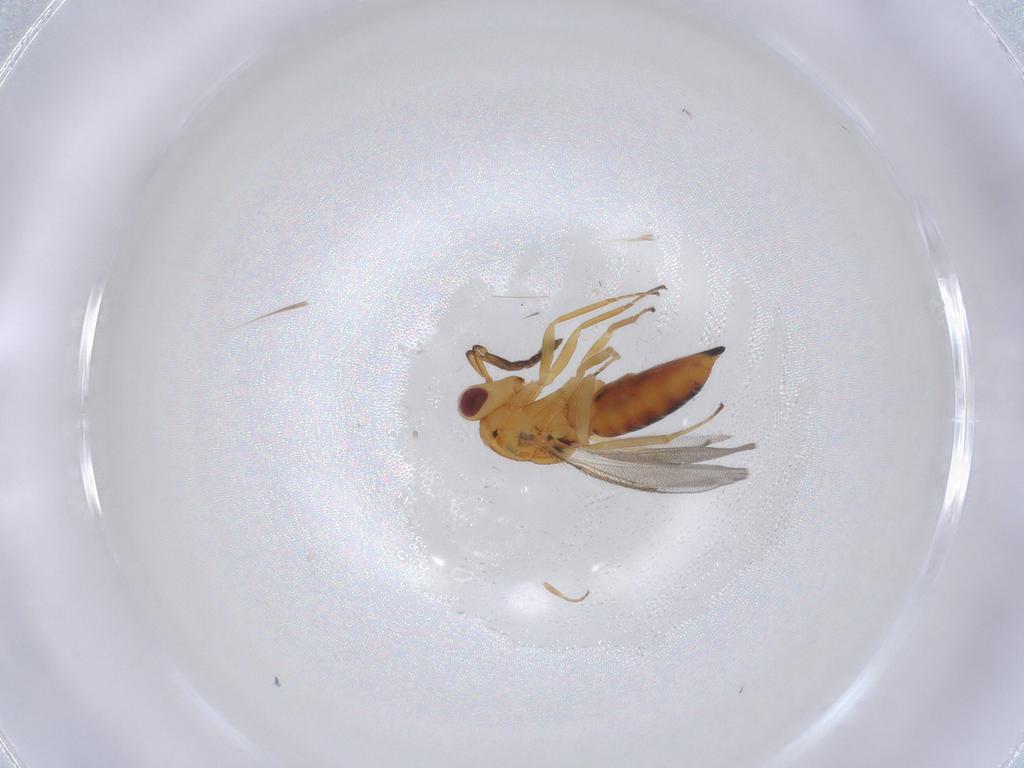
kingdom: Animalia
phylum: Arthropoda
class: Insecta
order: Hymenoptera
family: Eulophidae
